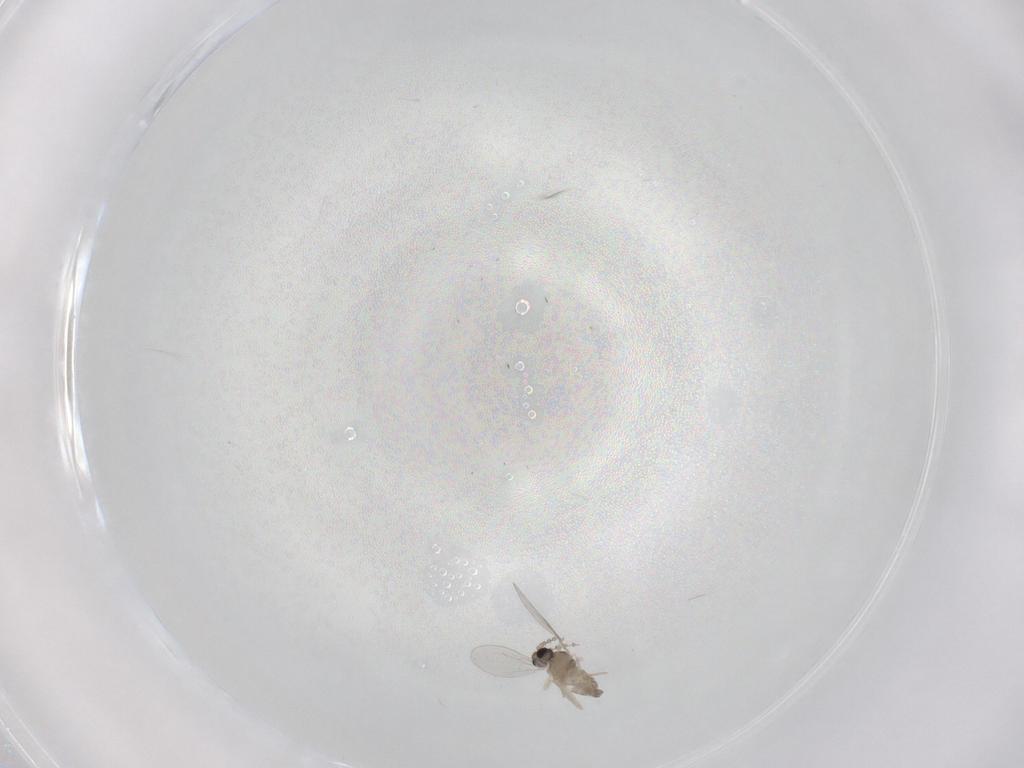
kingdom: Animalia
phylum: Arthropoda
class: Insecta
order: Diptera
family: Cecidomyiidae
